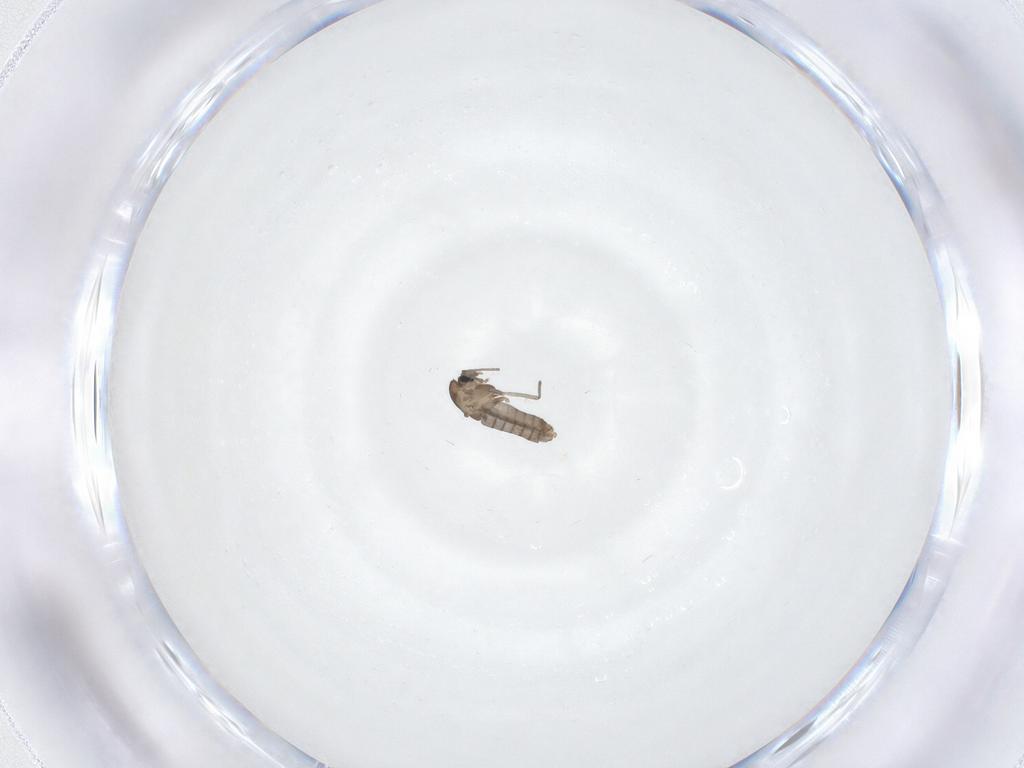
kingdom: Animalia
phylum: Arthropoda
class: Insecta
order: Diptera
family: Chironomidae
